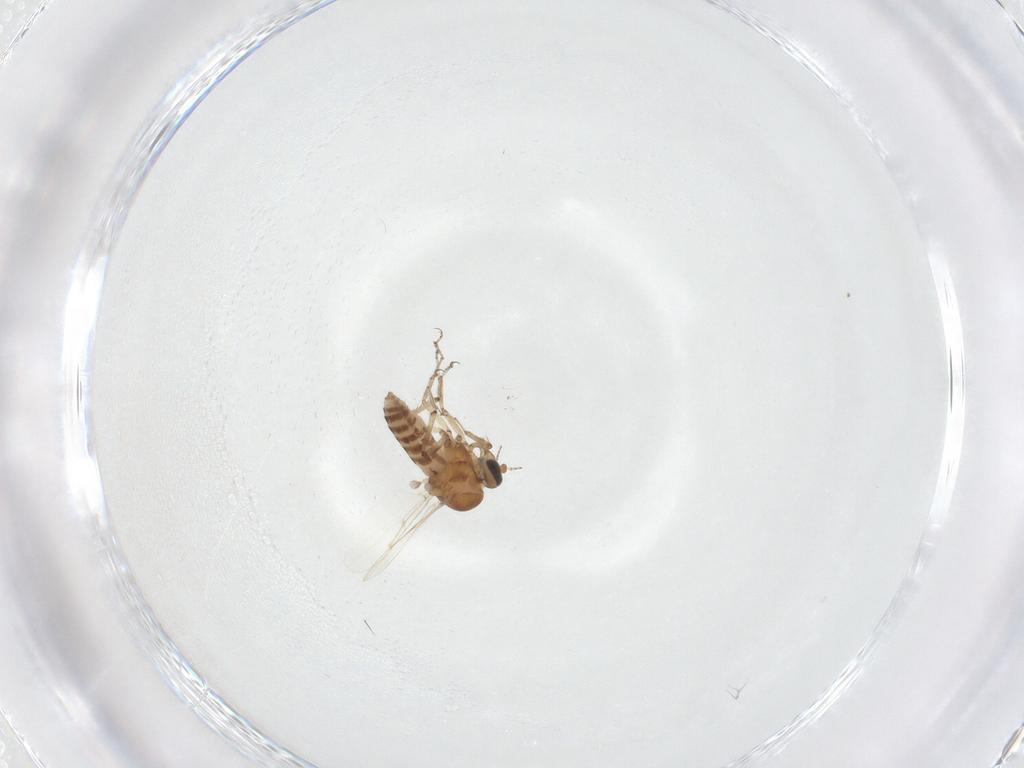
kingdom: Animalia
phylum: Arthropoda
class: Insecta
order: Diptera
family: Ceratopogonidae
